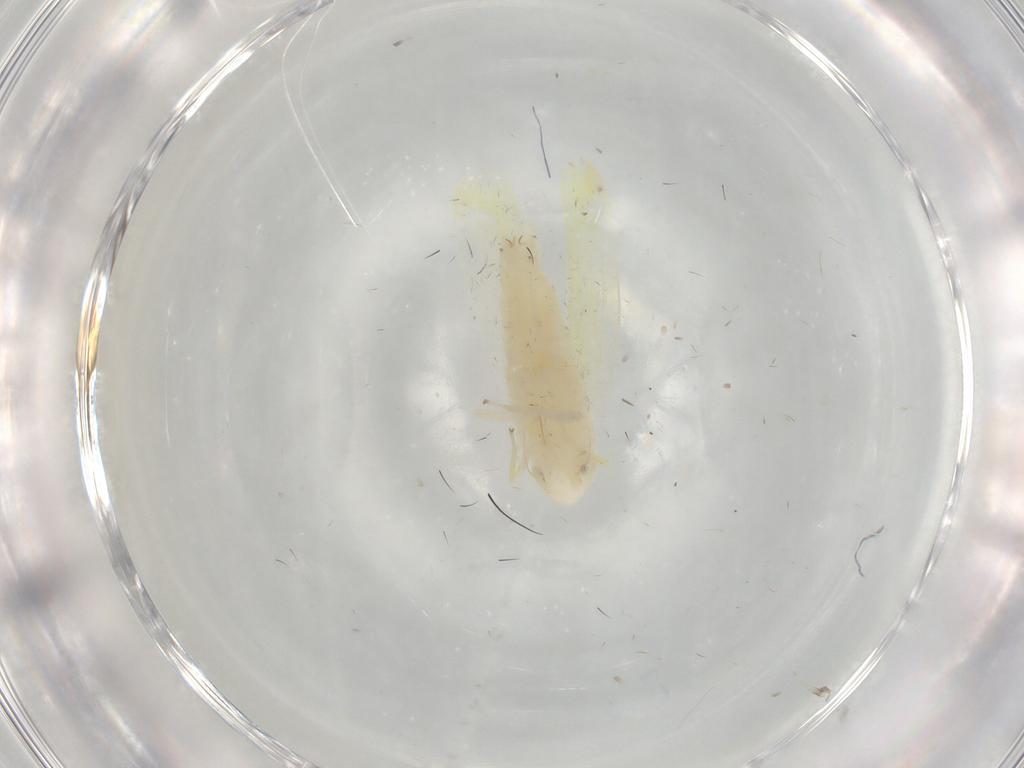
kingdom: Animalia
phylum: Arthropoda
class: Insecta
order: Hemiptera
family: Cicadellidae
